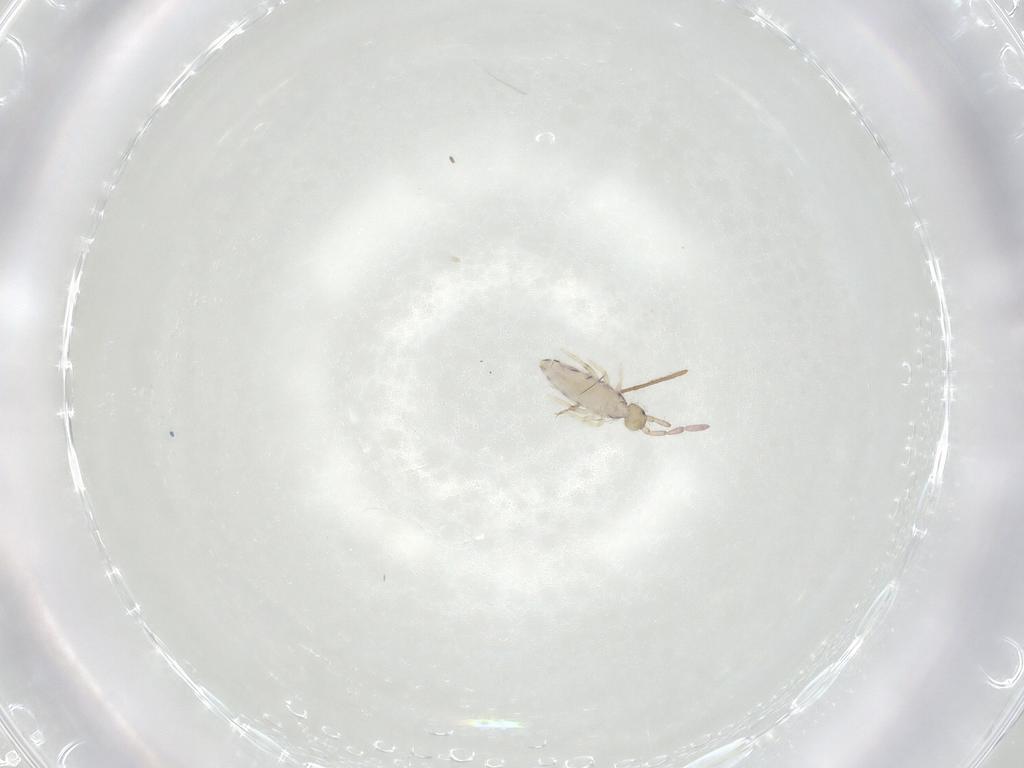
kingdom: Animalia
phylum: Arthropoda
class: Collembola
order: Entomobryomorpha
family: Entomobryidae
